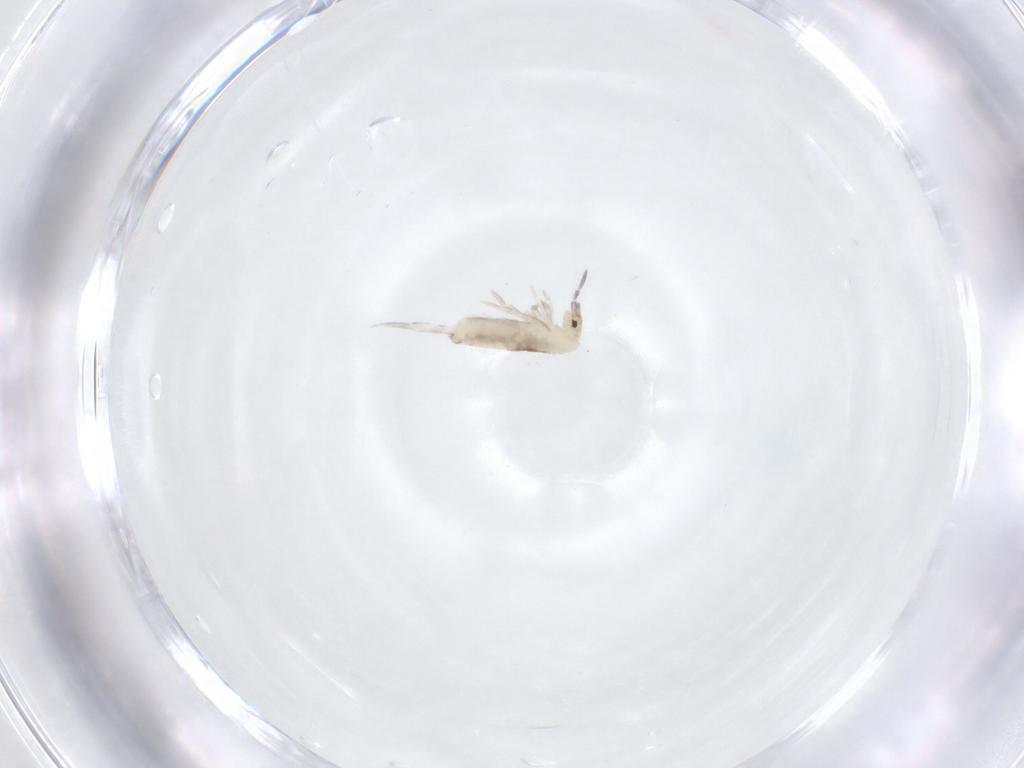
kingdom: Animalia
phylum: Arthropoda
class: Collembola
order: Entomobryomorpha
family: Entomobryidae
